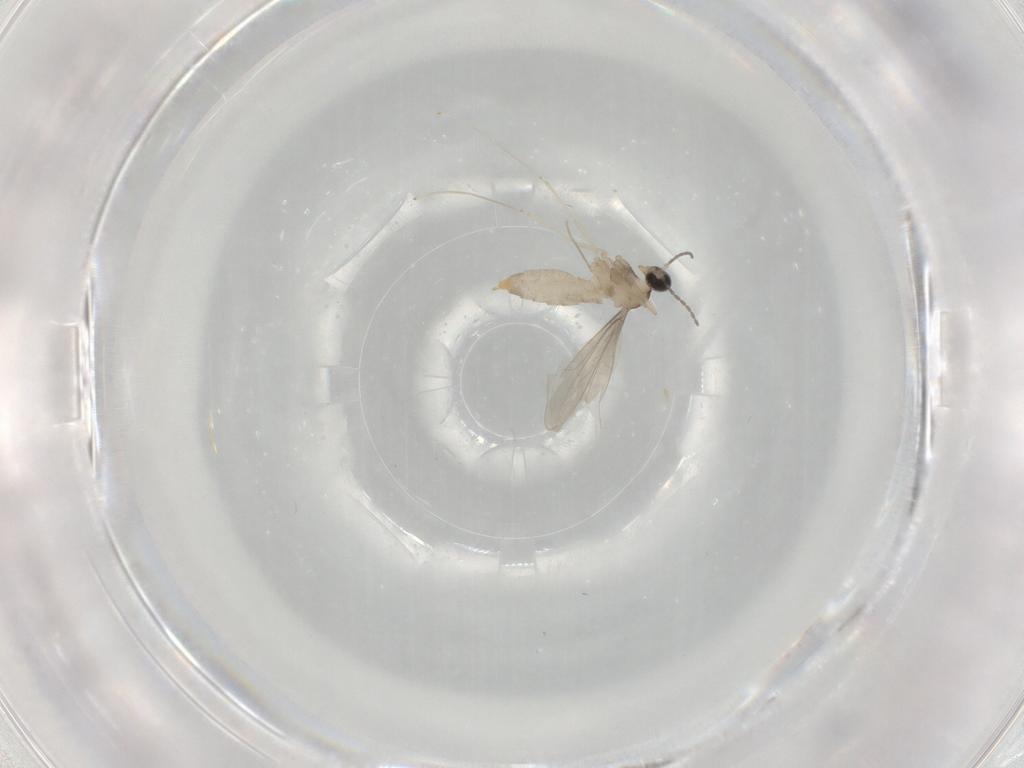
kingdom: Animalia
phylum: Arthropoda
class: Insecta
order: Diptera
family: Cecidomyiidae
